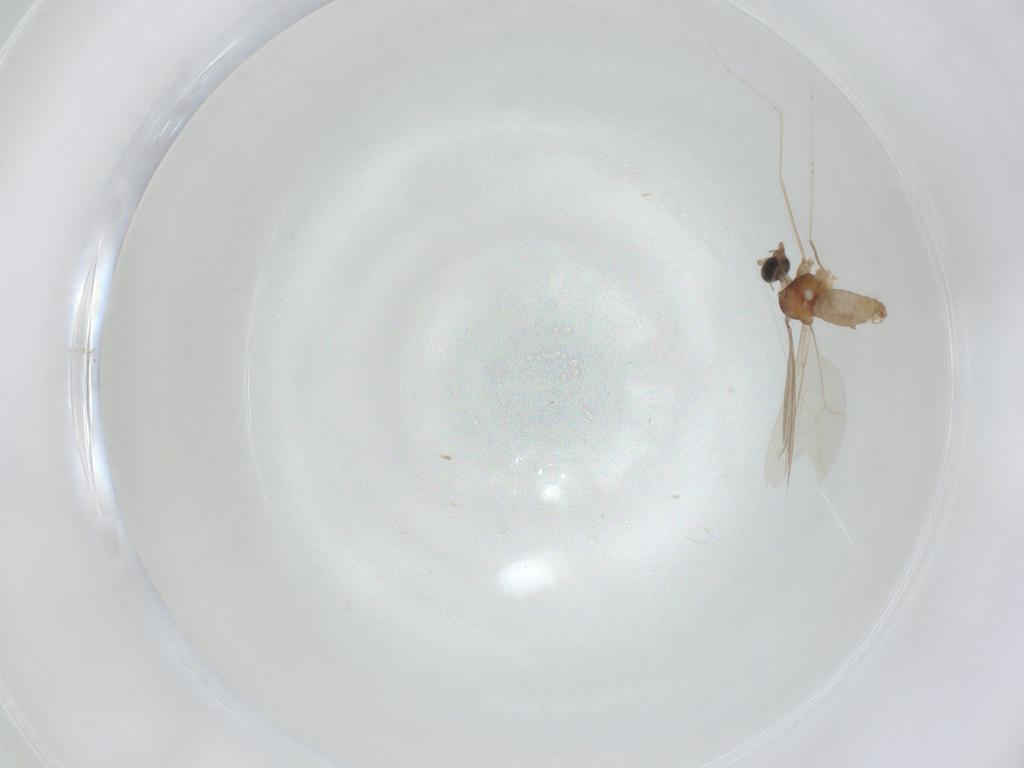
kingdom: Animalia
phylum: Arthropoda
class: Insecta
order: Diptera
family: Cecidomyiidae
